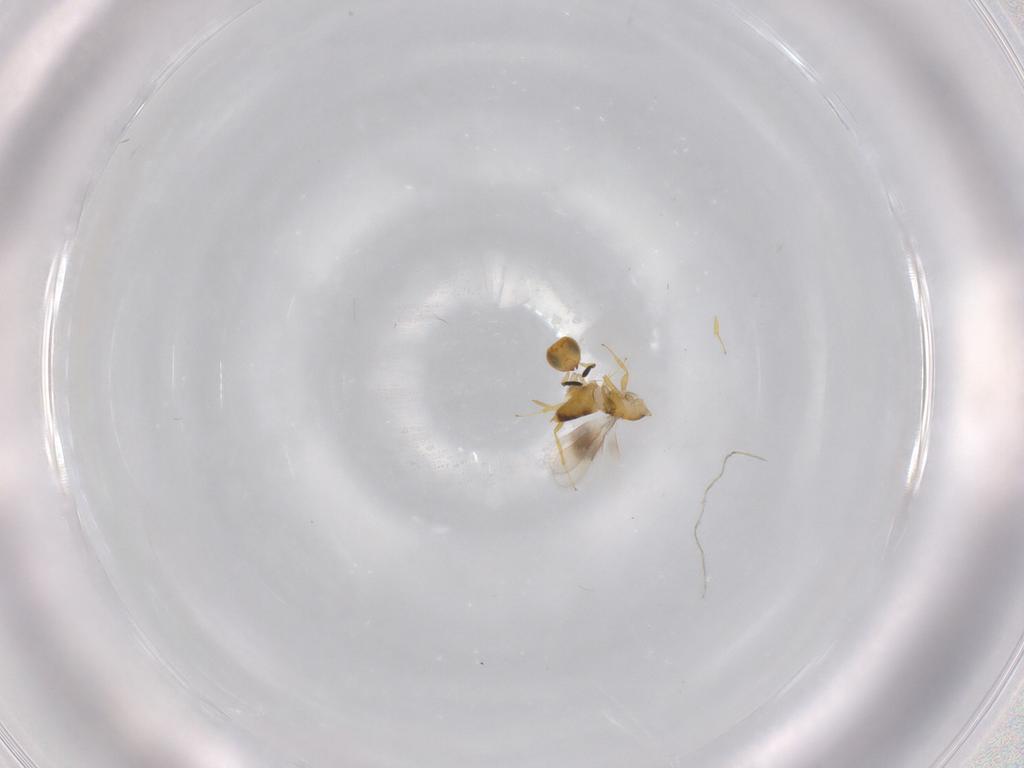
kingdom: Animalia
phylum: Arthropoda
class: Insecta
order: Hymenoptera
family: Encyrtidae
